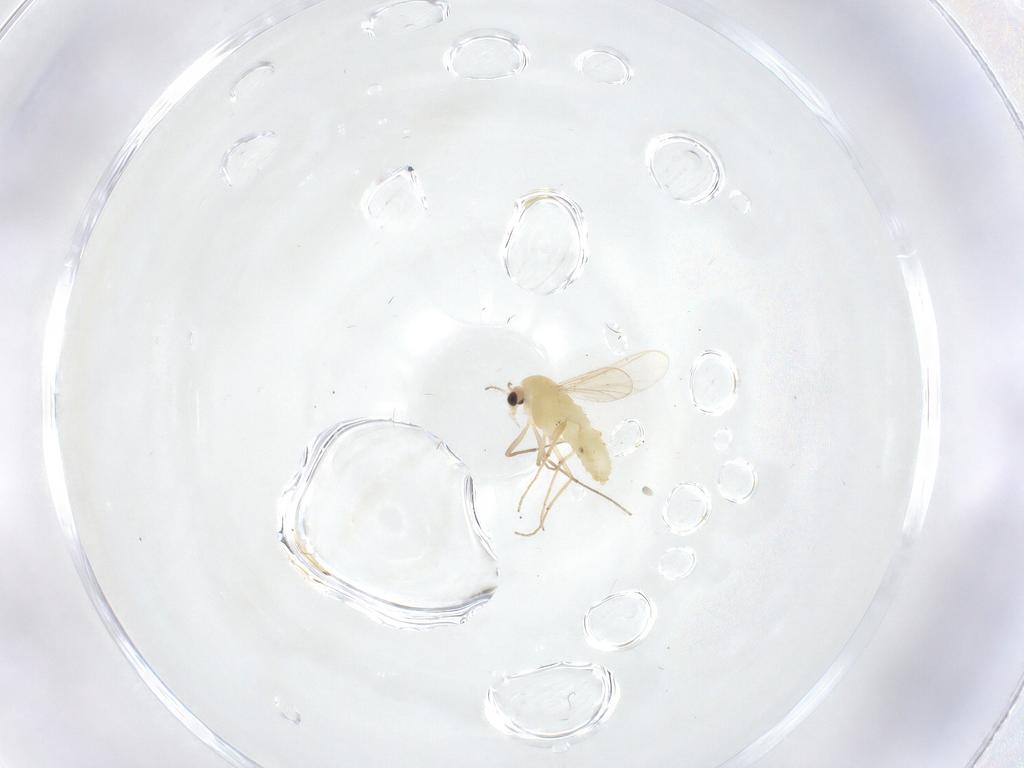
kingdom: Animalia
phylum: Arthropoda
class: Insecta
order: Diptera
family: Chironomidae
